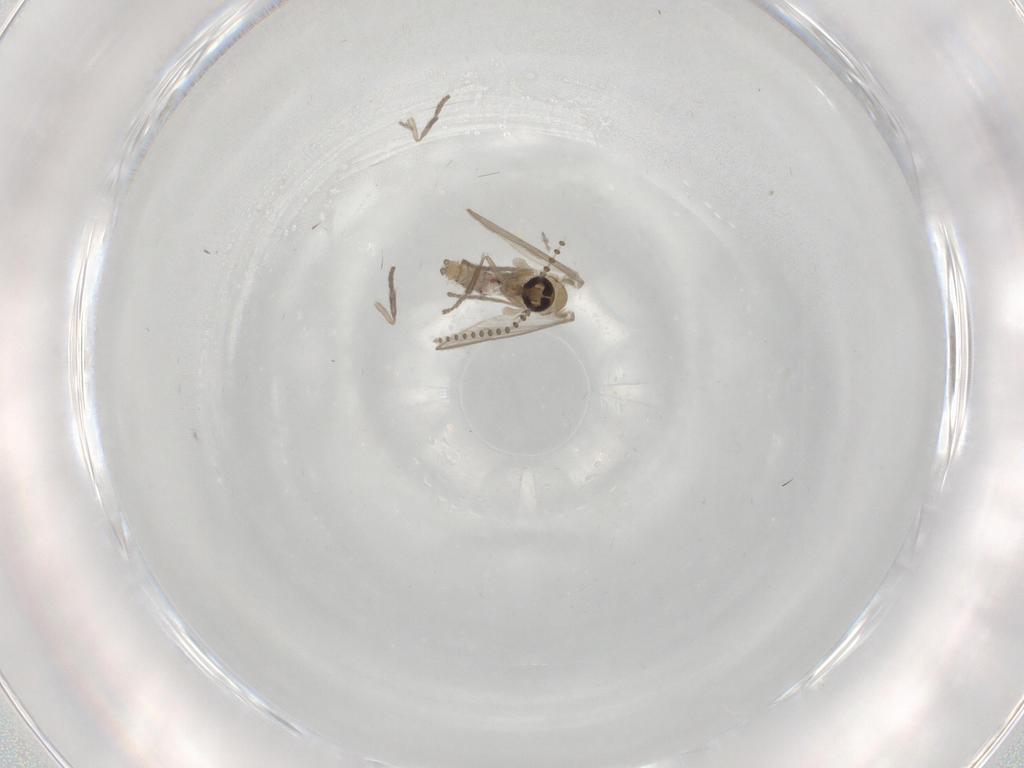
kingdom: Animalia
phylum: Arthropoda
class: Insecta
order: Diptera
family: Psychodidae
